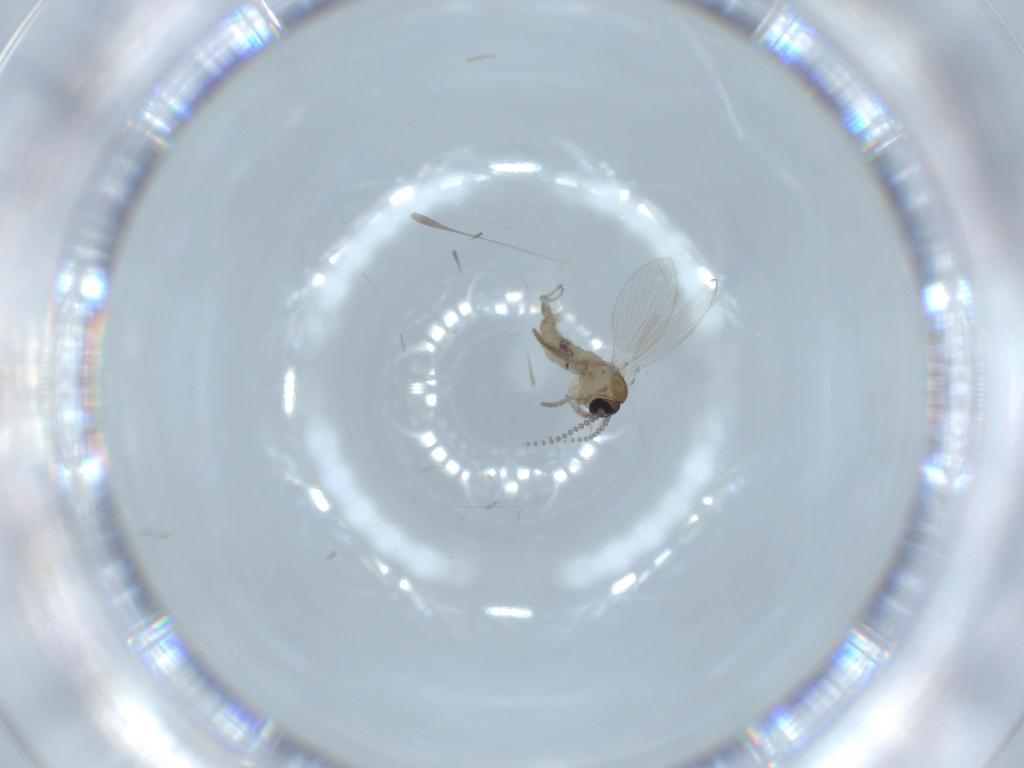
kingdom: Animalia
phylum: Arthropoda
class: Insecta
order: Diptera
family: Psychodidae
